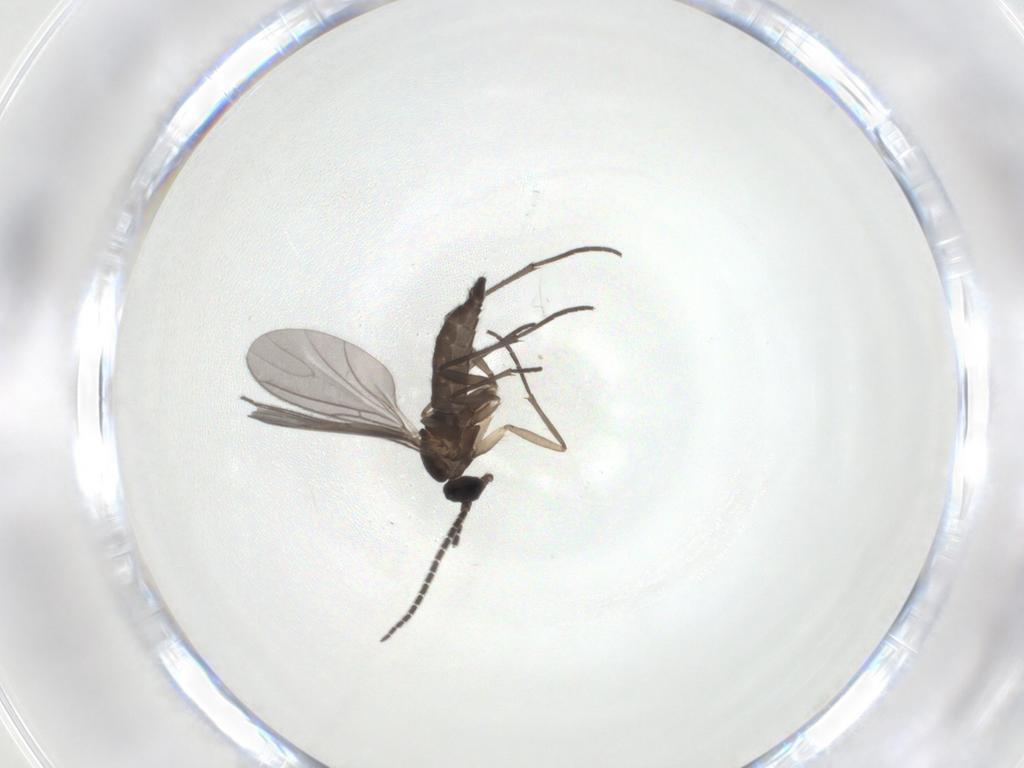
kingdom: Animalia
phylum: Arthropoda
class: Insecta
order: Diptera
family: Sciaridae
